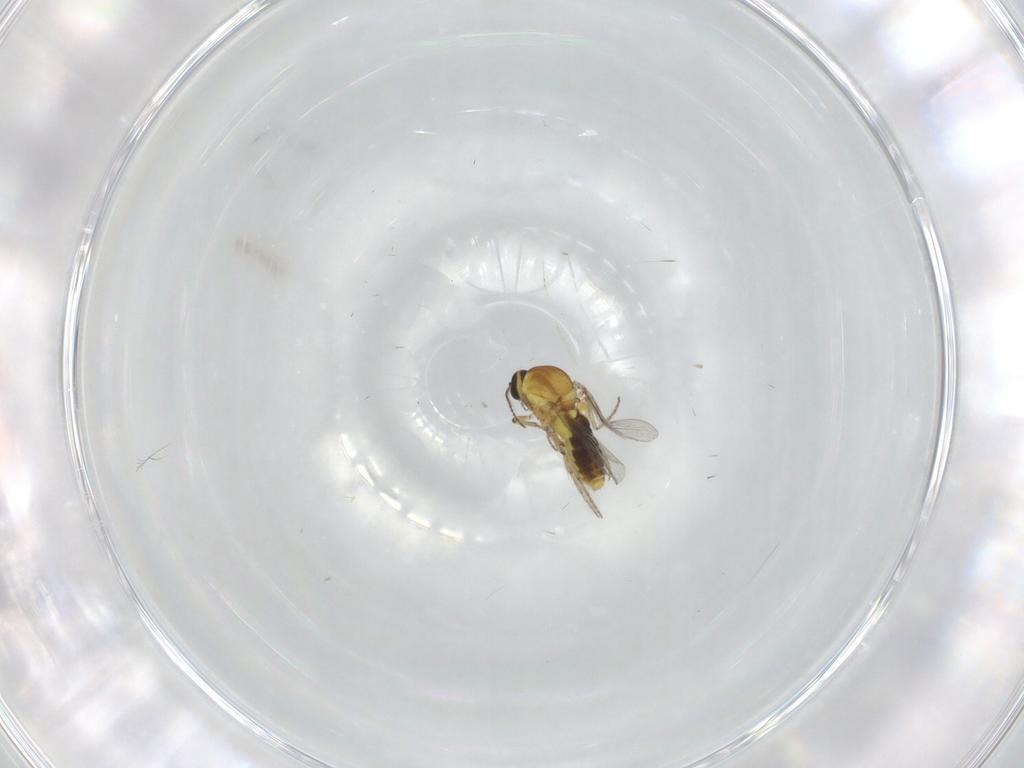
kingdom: Animalia
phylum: Arthropoda
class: Insecta
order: Diptera
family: Cecidomyiidae
